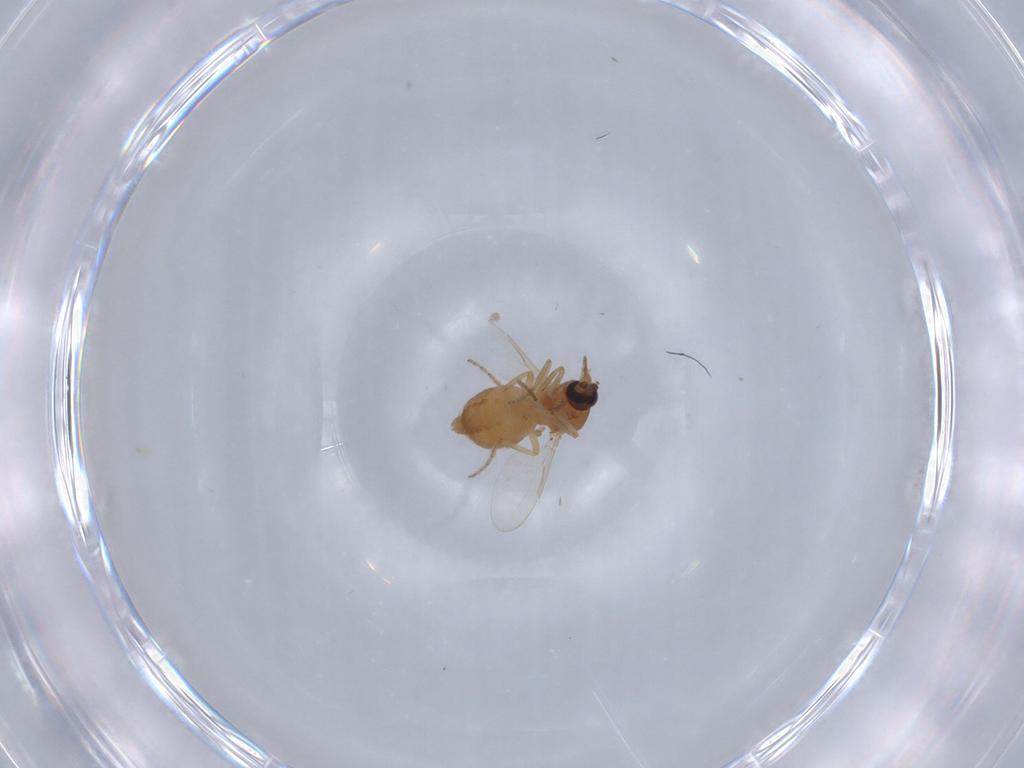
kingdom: Animalia
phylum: Arthropoda
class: Insecta
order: Diptera
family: Ceratopogonidae
